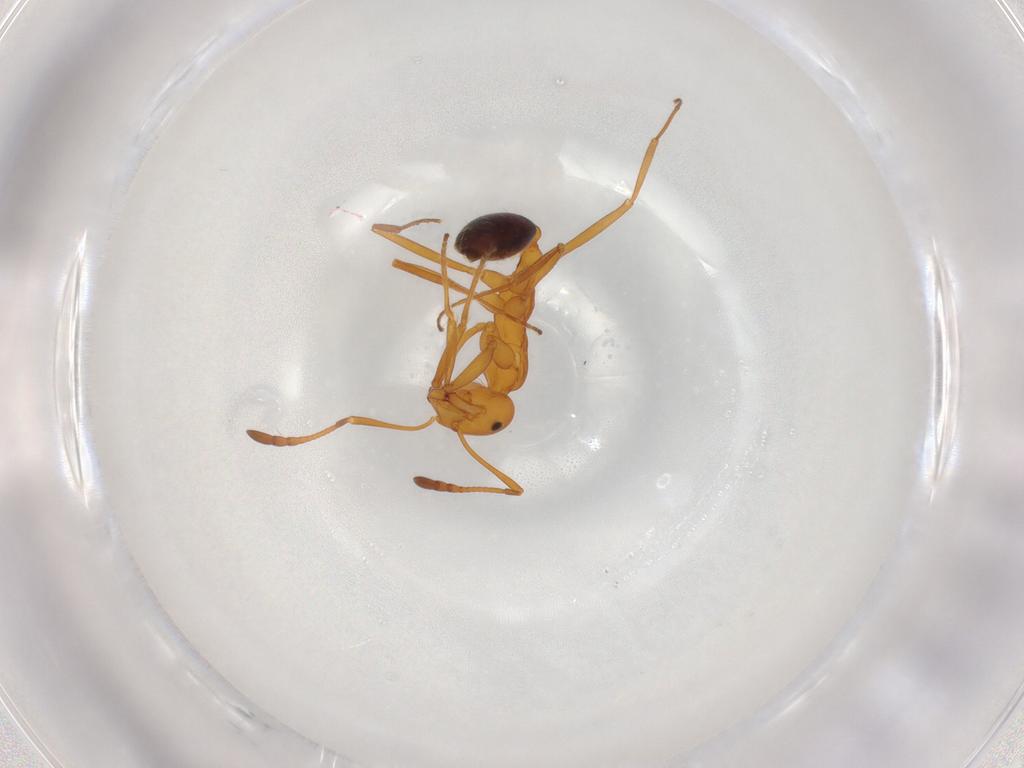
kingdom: Animalia
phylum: Arthropoda
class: Insecta
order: Hymenoptera
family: Formicidae
